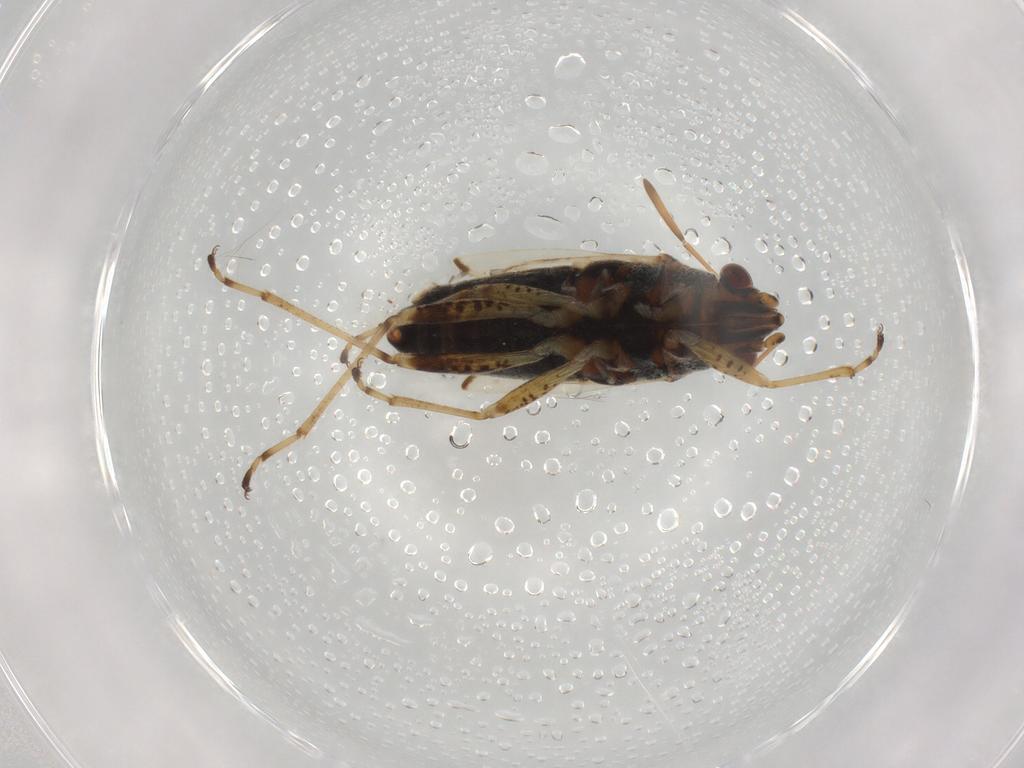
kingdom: Animalia
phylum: Arthropoda
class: Insecta
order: Hemiptera
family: Lygaeidae
